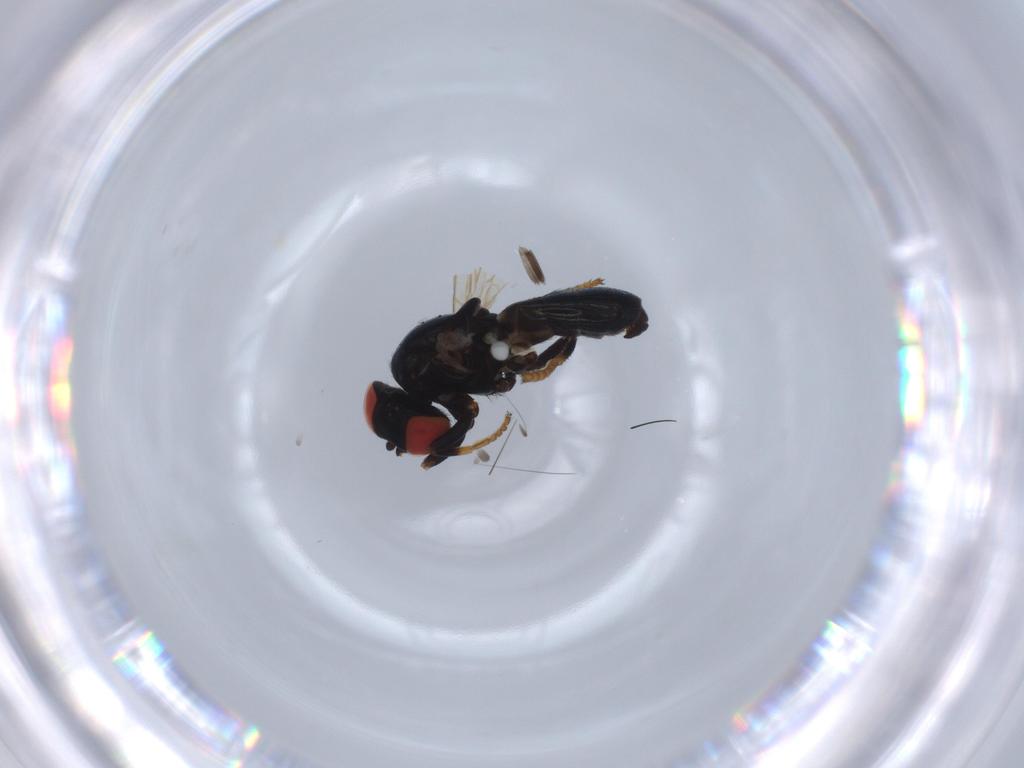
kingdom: Animalia
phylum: Arthropoda
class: Insecta
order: Diptera
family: Chamaemyiidae
